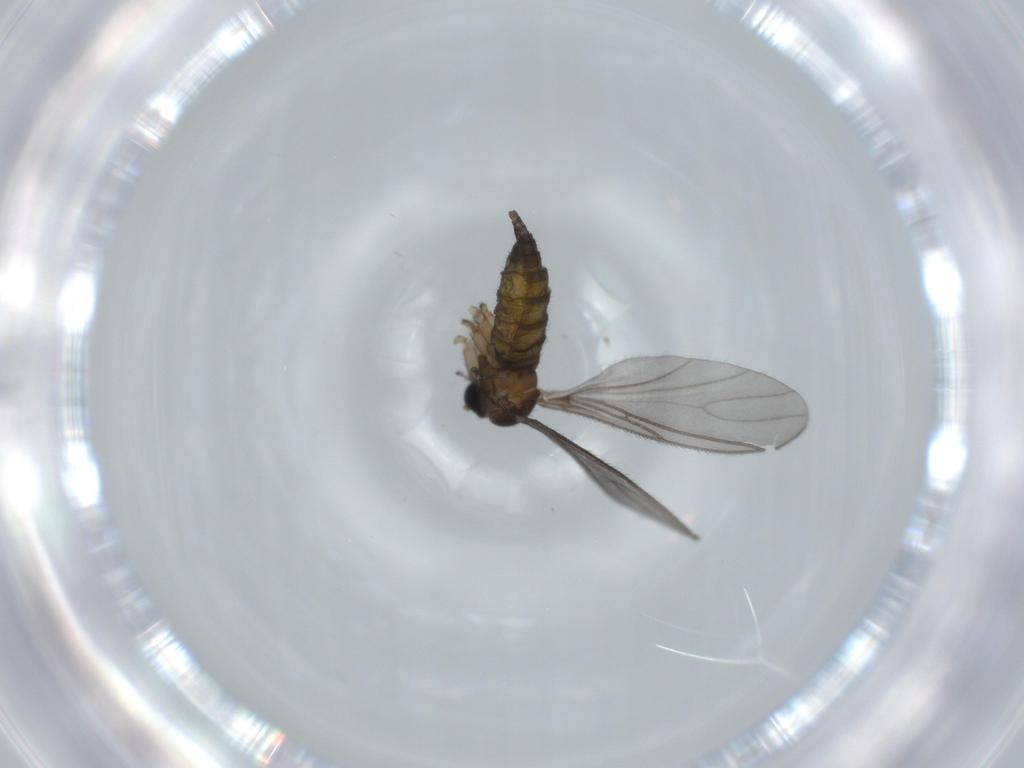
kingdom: Animalia
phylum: Arthropoda
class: Insecta
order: Diptera
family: Sciaridae
